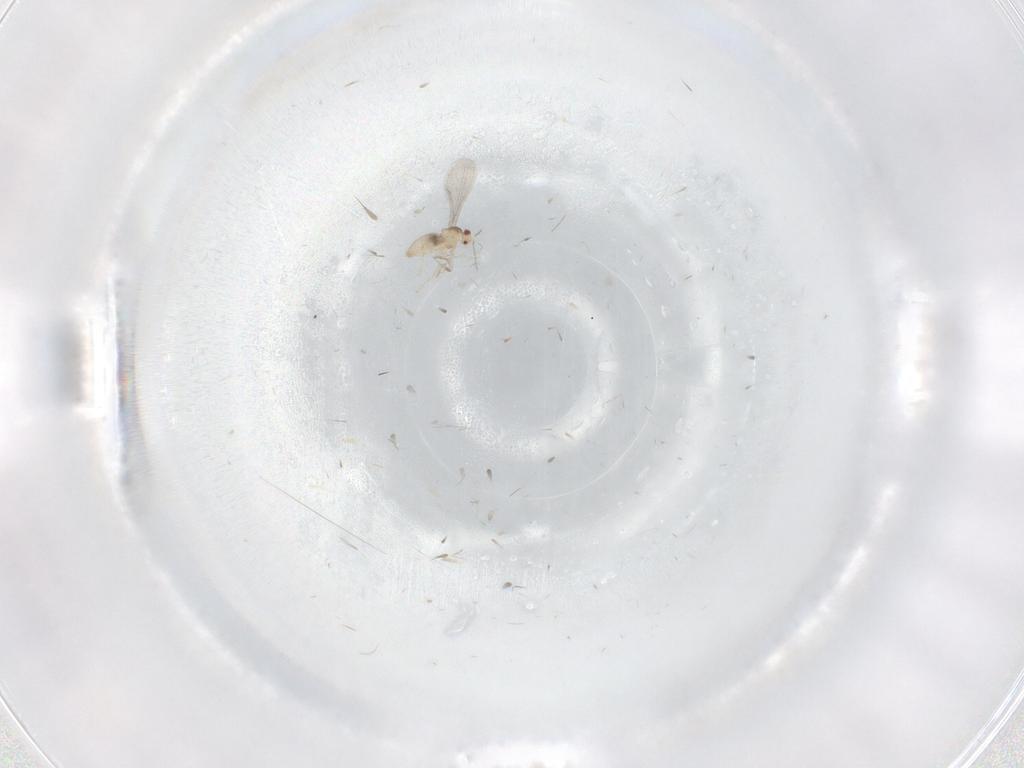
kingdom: Animalia
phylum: Arthropoda
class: Insecta
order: Diptera
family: Cecidomyiidae
